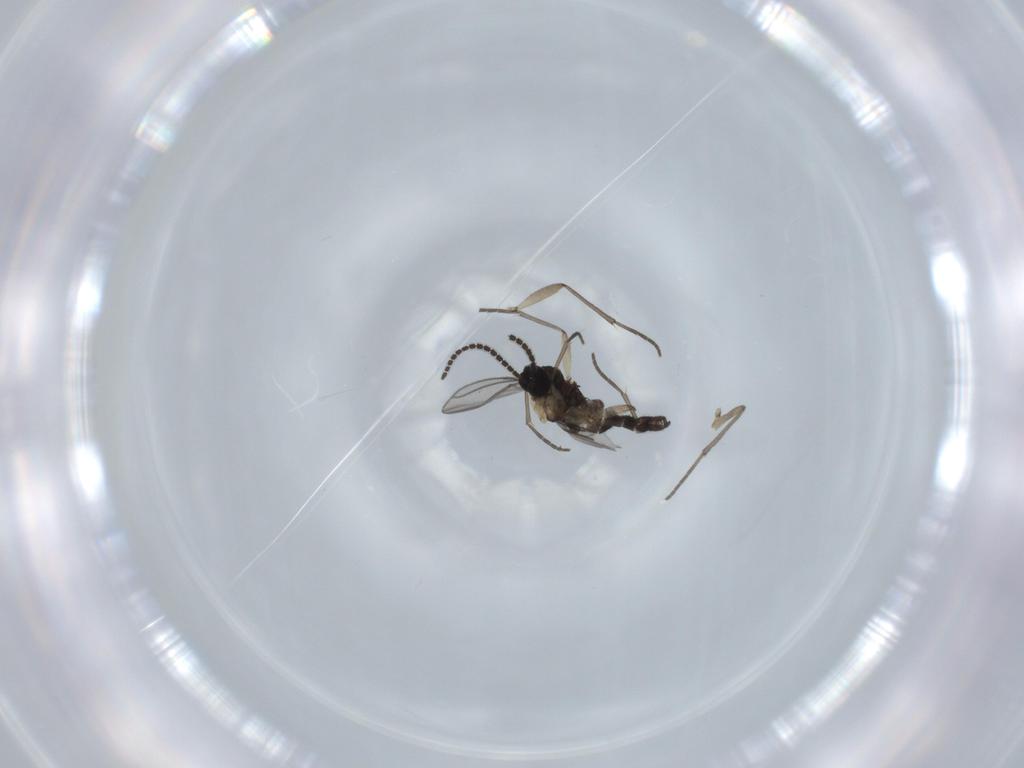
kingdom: Animalia
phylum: Arthropoda
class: Insecta
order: Diptera
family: Sciaridae
